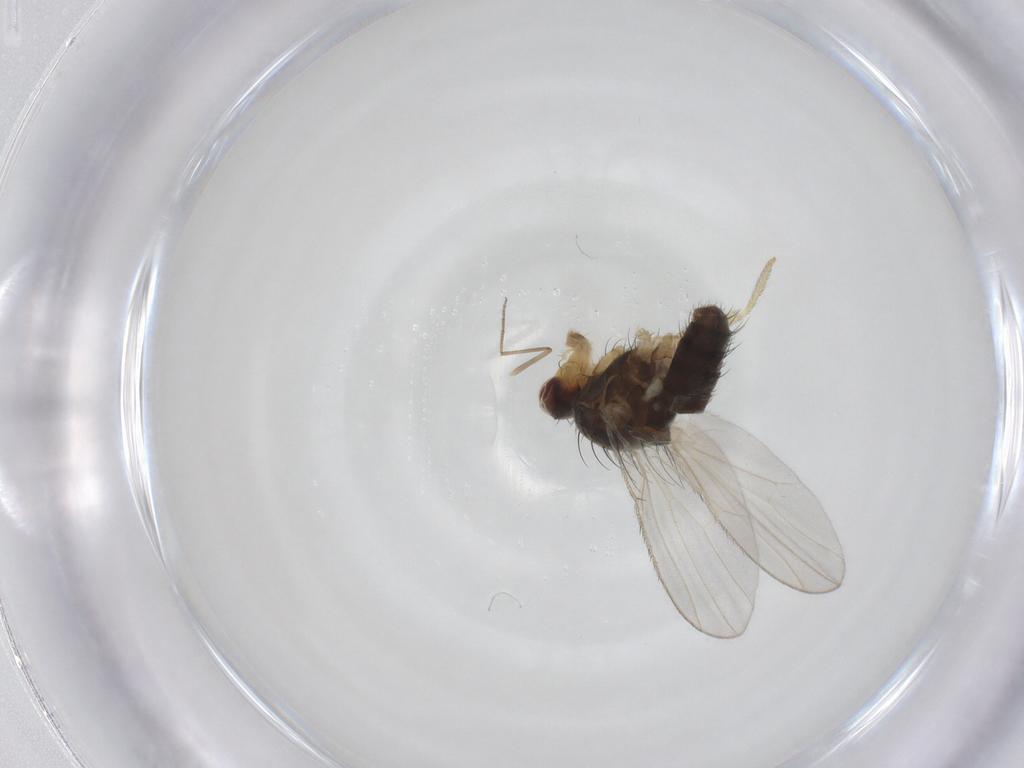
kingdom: Animalia
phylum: Arthropoda
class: Insecta
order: Diptera
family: Heleomyzidae
